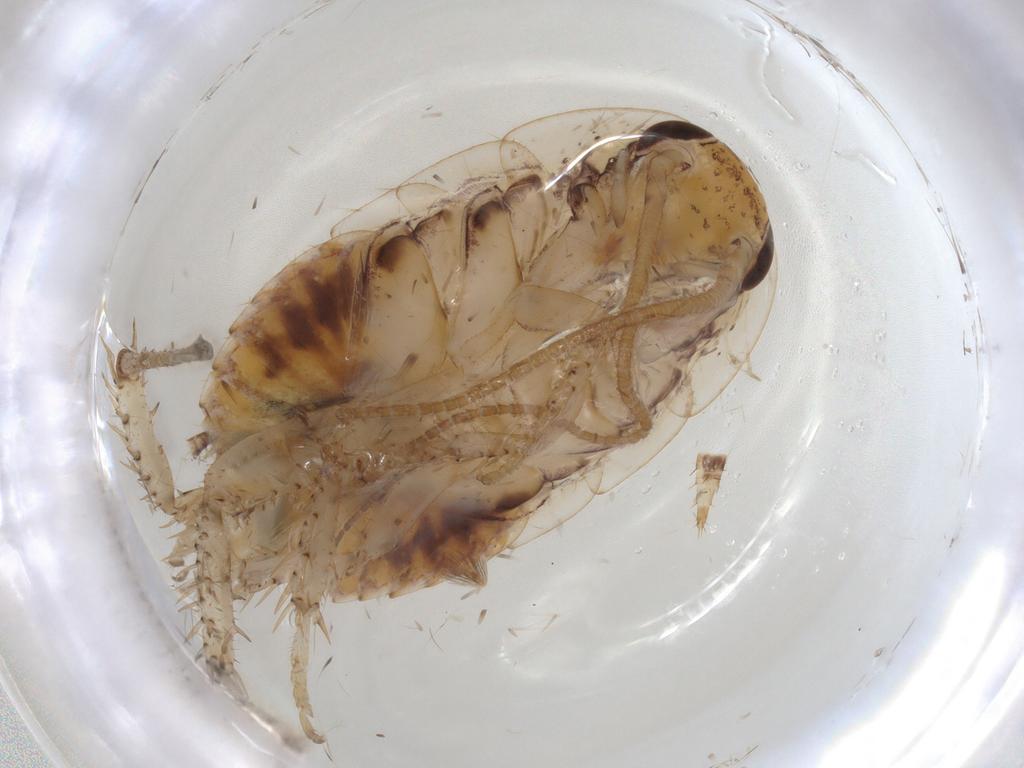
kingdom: Animalia
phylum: Arthropoda
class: Insecta
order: Blattodea
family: Blaberidae
